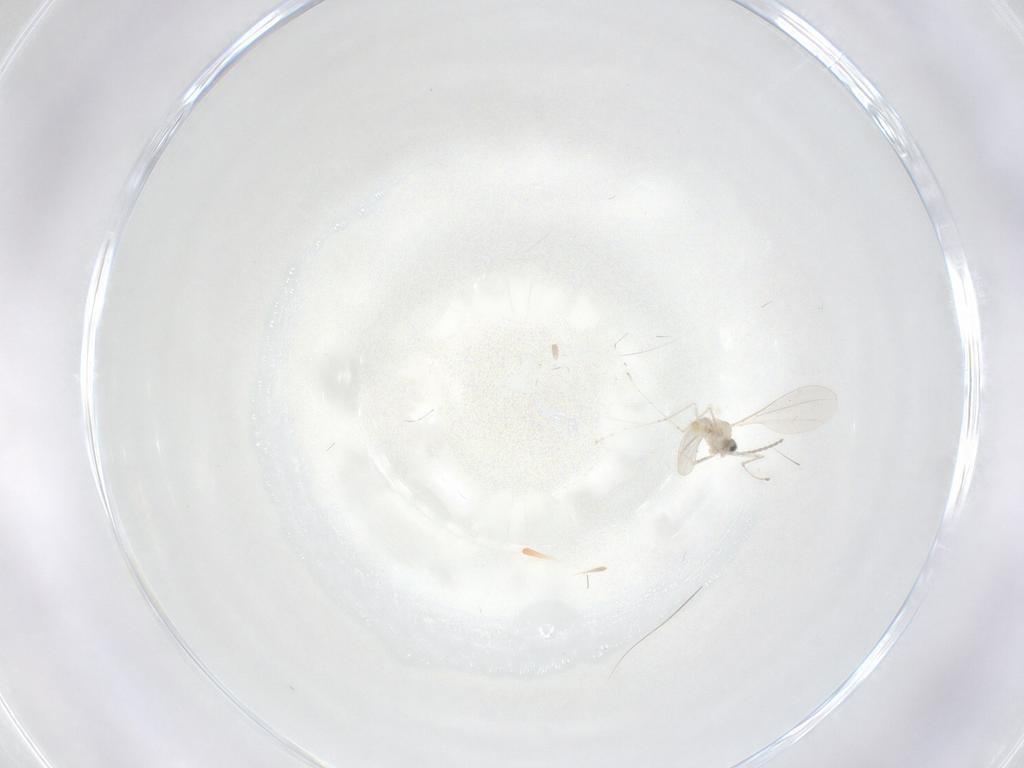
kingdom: Animalia
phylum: Arthropoda
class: Insecta
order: Diptera
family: Cecidomyiidae
